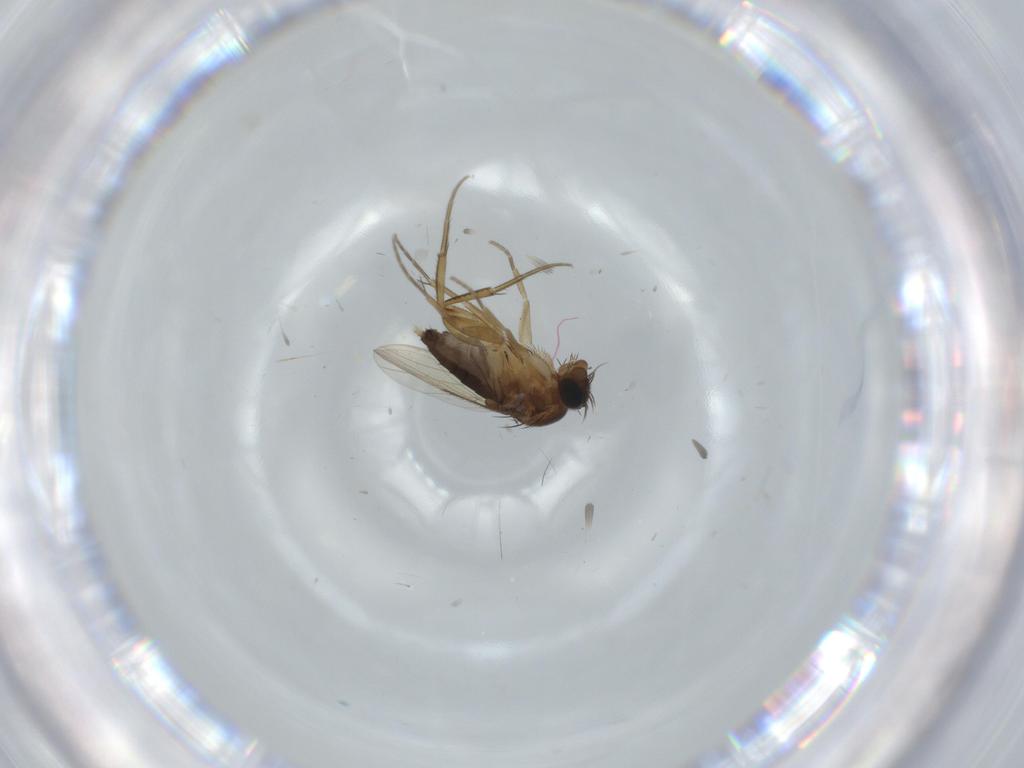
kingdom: Animalia
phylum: Arthropoda
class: Insecta
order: Diptera
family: Phoridae
